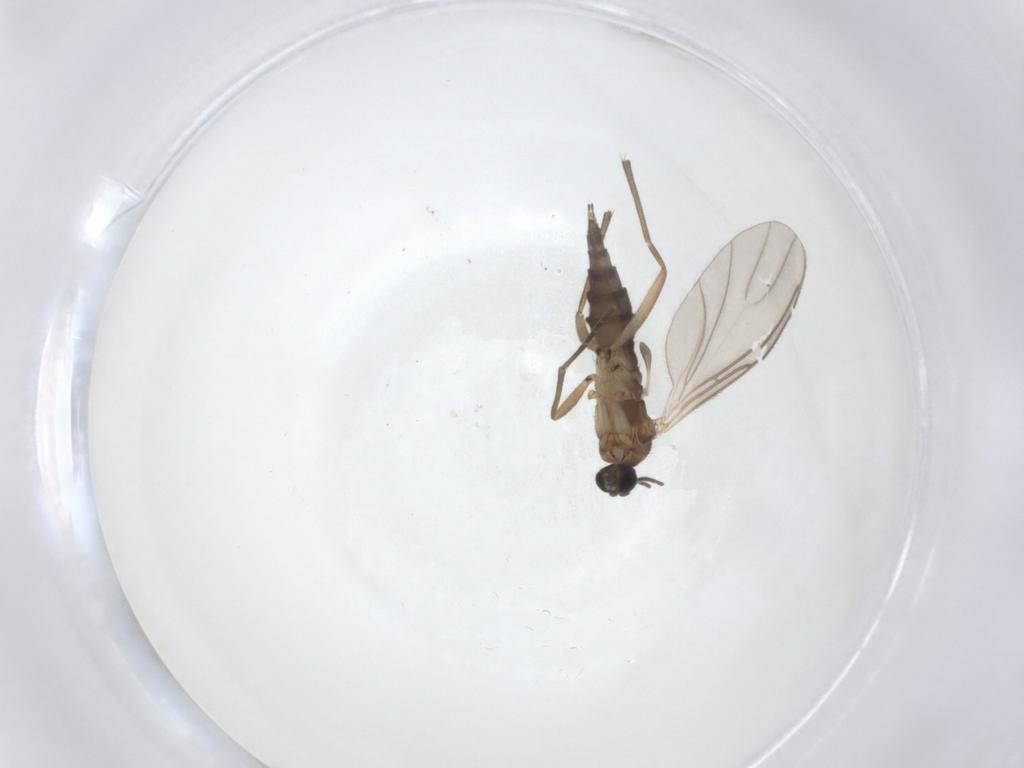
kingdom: Animalia
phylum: Arthropoda
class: Insecta
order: Diptera
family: Sciaridae
